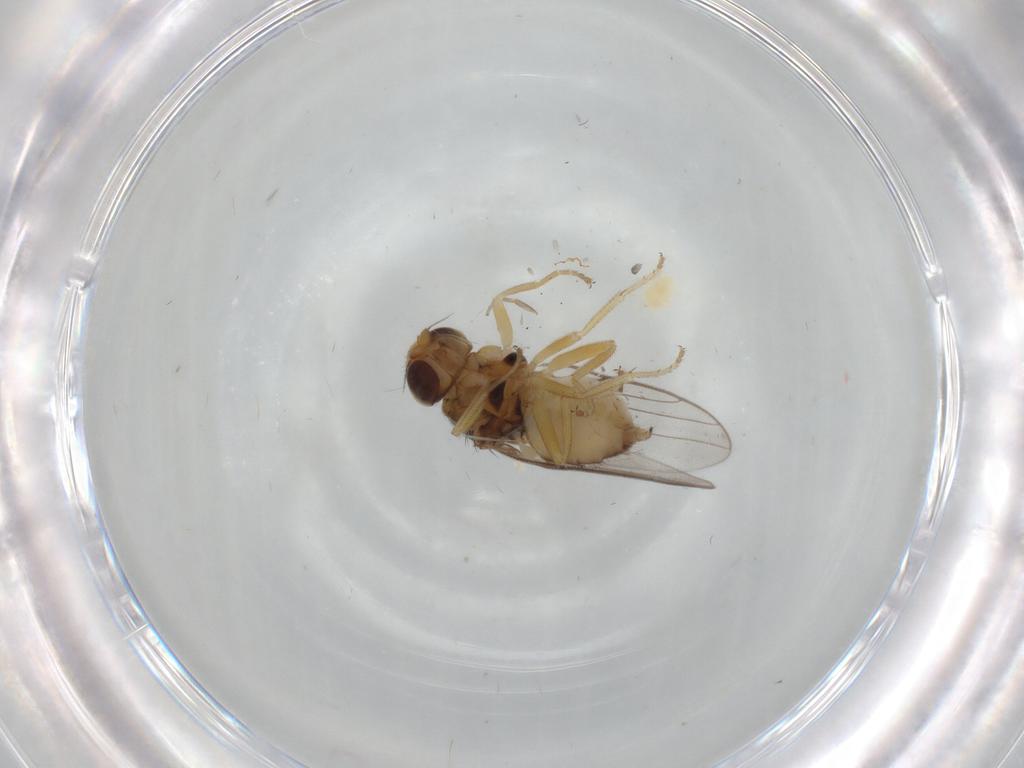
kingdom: Animalia
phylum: Arthropoda
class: Insecta
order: Diptera
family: Chloropidae
